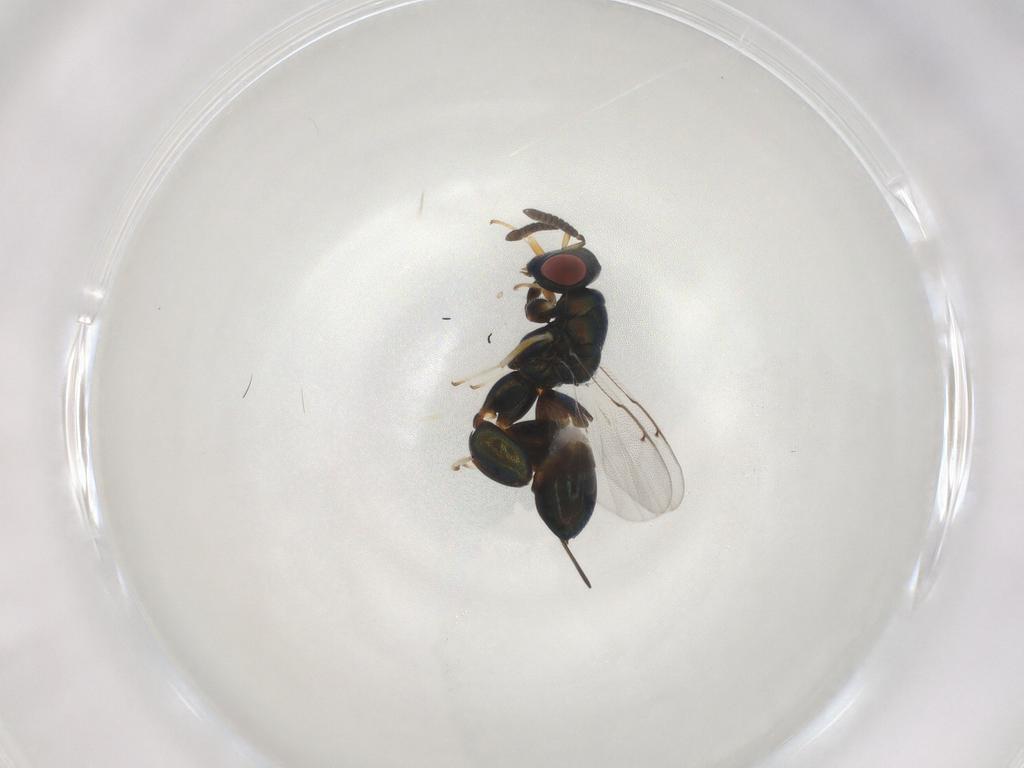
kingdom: Animalia
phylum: Arthropoda
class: Insecta
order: Hymenoptera
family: Torymidae
